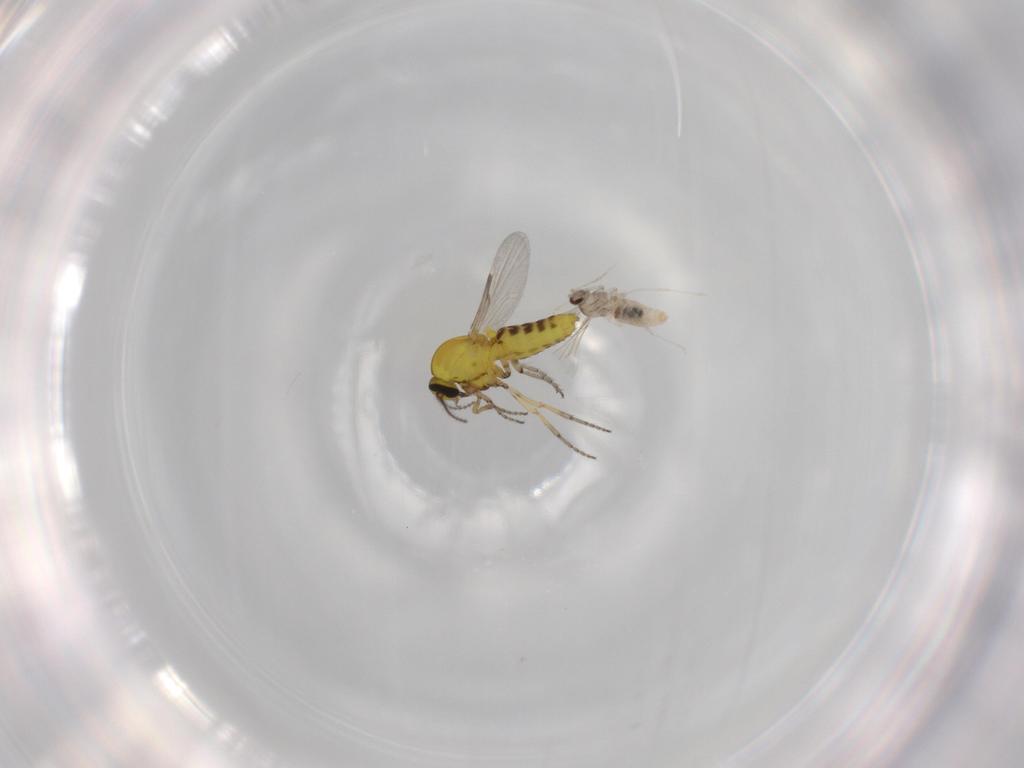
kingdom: Animalia
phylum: Arthropoda
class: Insecta
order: Diptera
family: Ceratopogonidae
